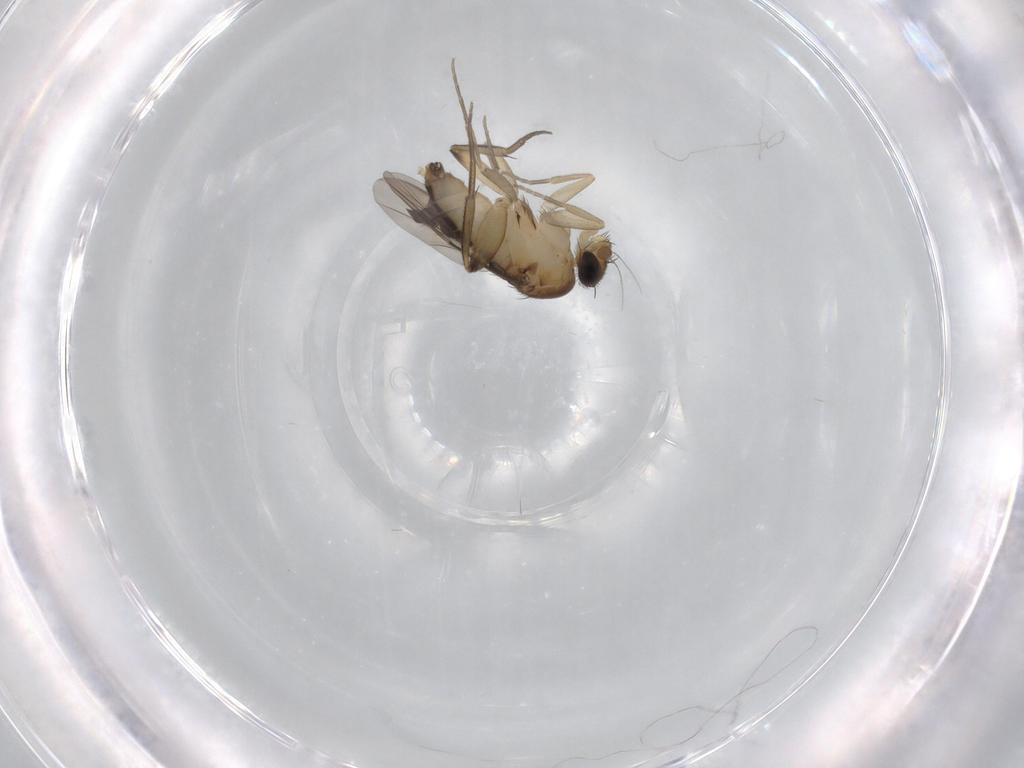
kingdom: Animalia
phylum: Arthropoda
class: Insecta
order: Diptera
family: Phoridae
